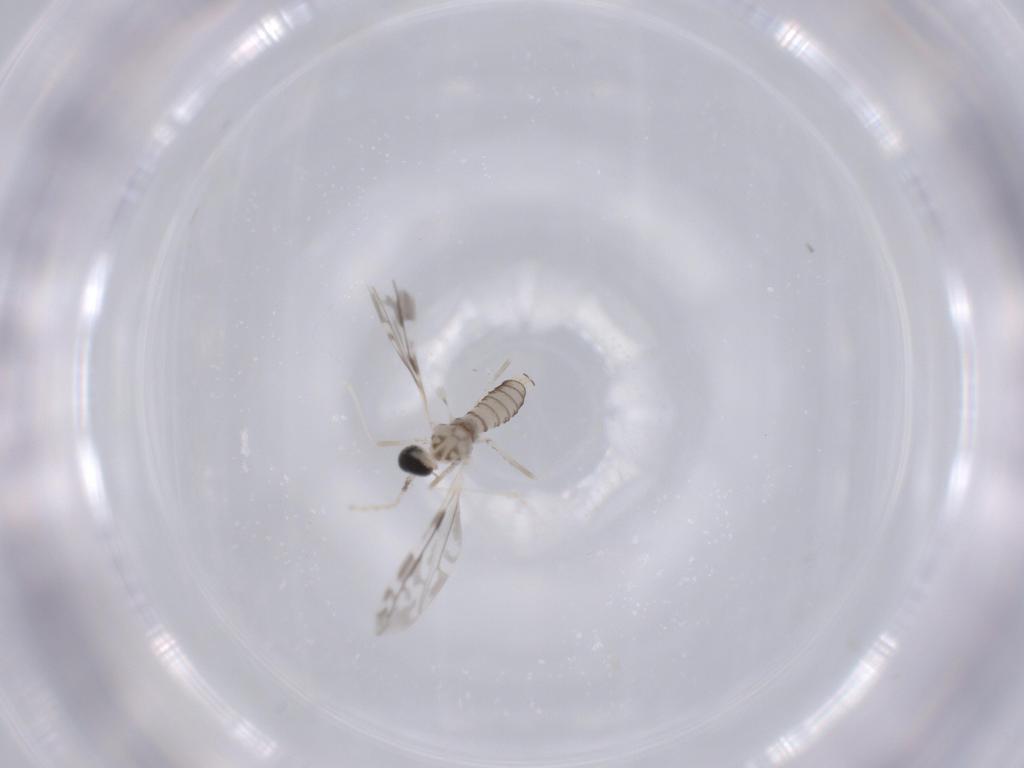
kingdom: Animalia
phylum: Arthropoda
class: Insecta
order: Diptera
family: Cecidomyiidae
